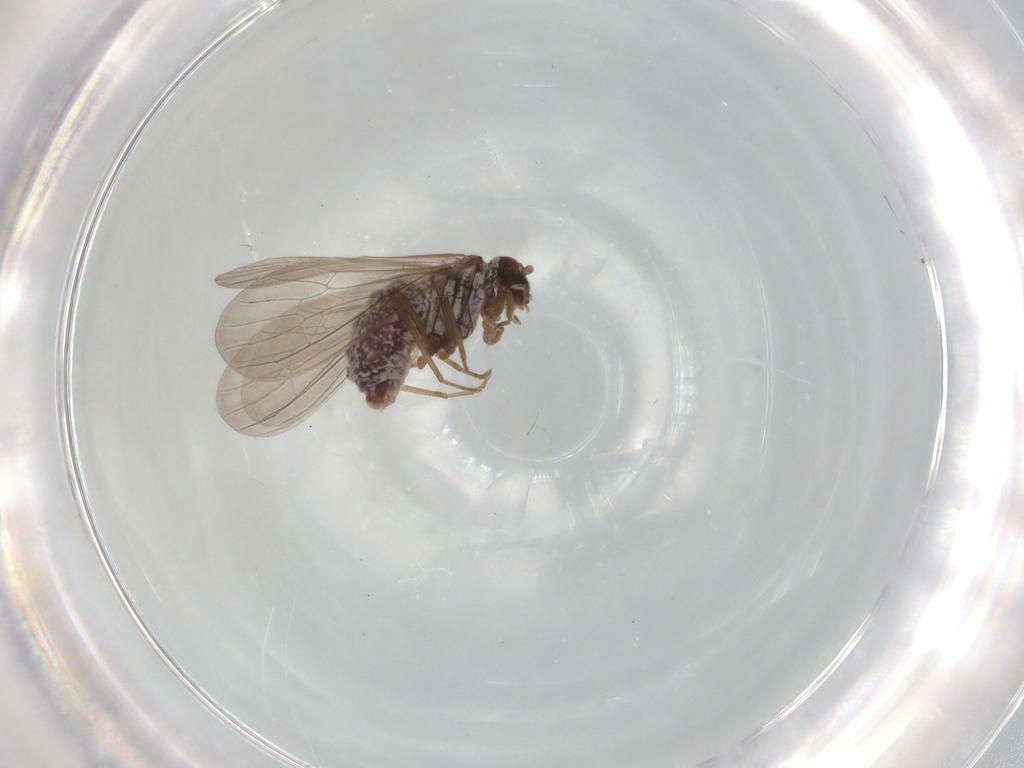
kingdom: Animalia
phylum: Arthropoda
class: Insecta
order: Neuroptera
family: Coniopterygidae
